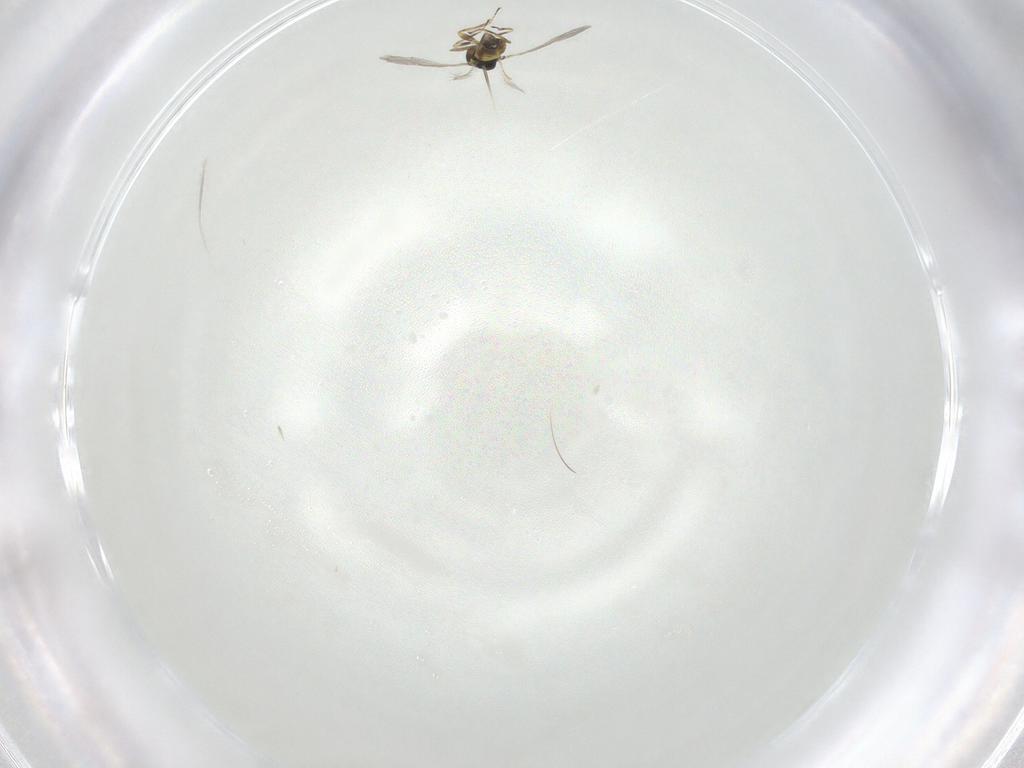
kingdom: Animalia
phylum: Arthropoda
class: Insecta
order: Hymenoptera
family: Eulophidae
